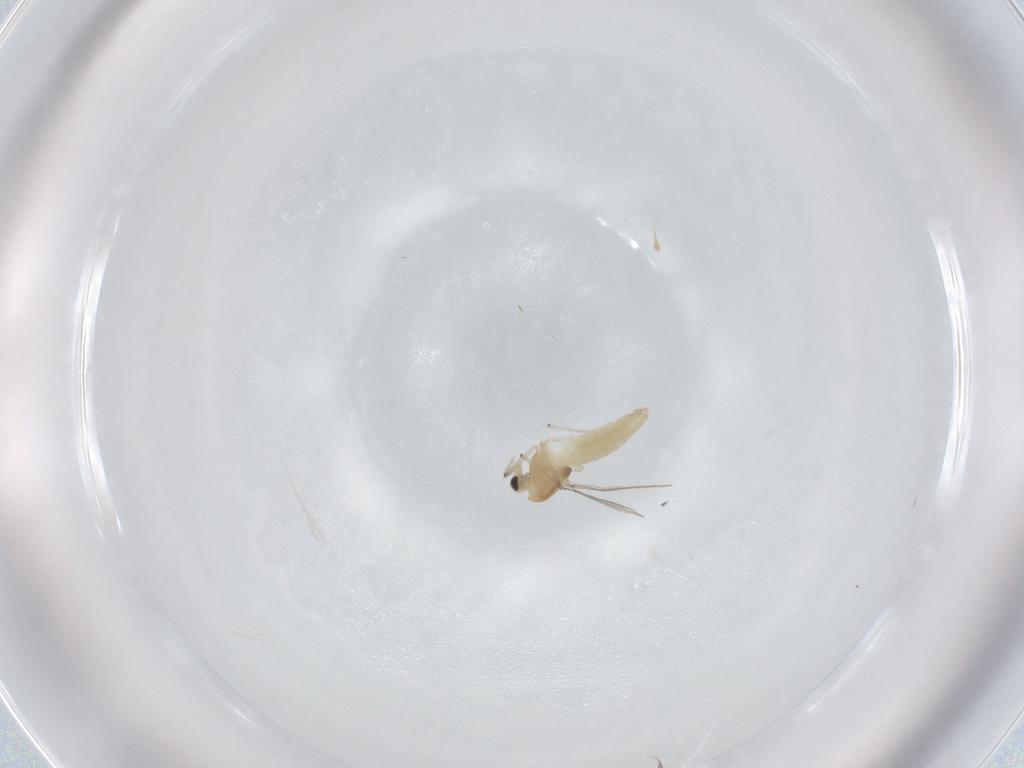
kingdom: Animalia
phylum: Arthropoda
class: Insecta
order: Diptera
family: Chironomidae
